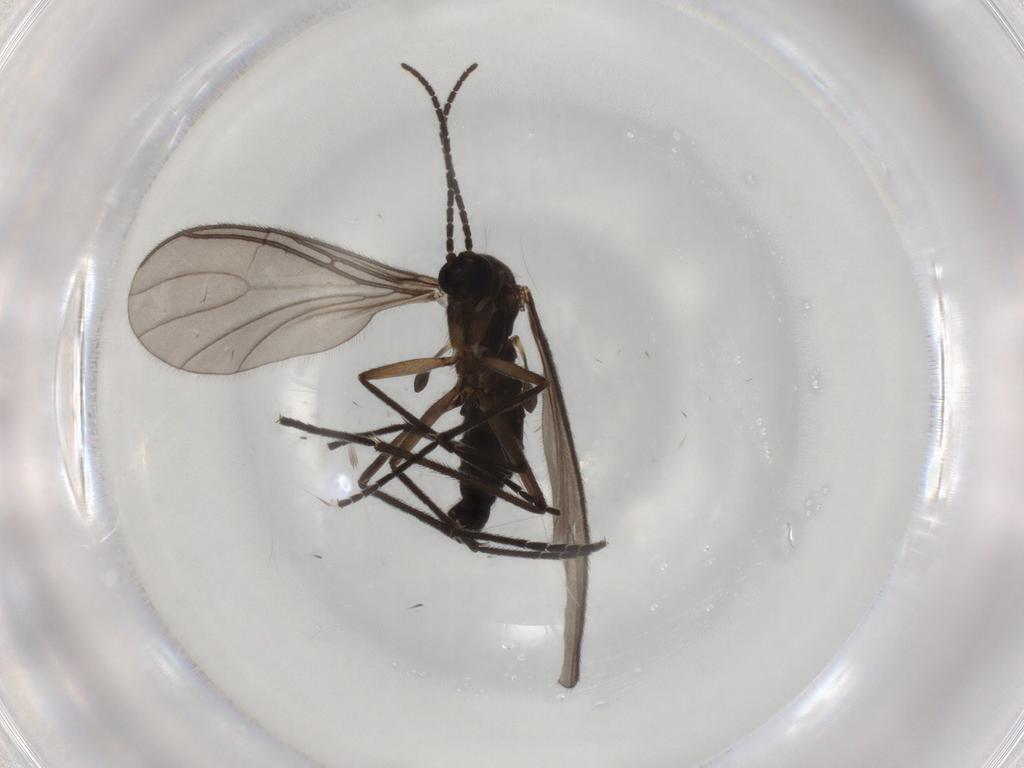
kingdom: Animalia
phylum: Arthropoda
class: Insecta
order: Diptera
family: Sciaridae
